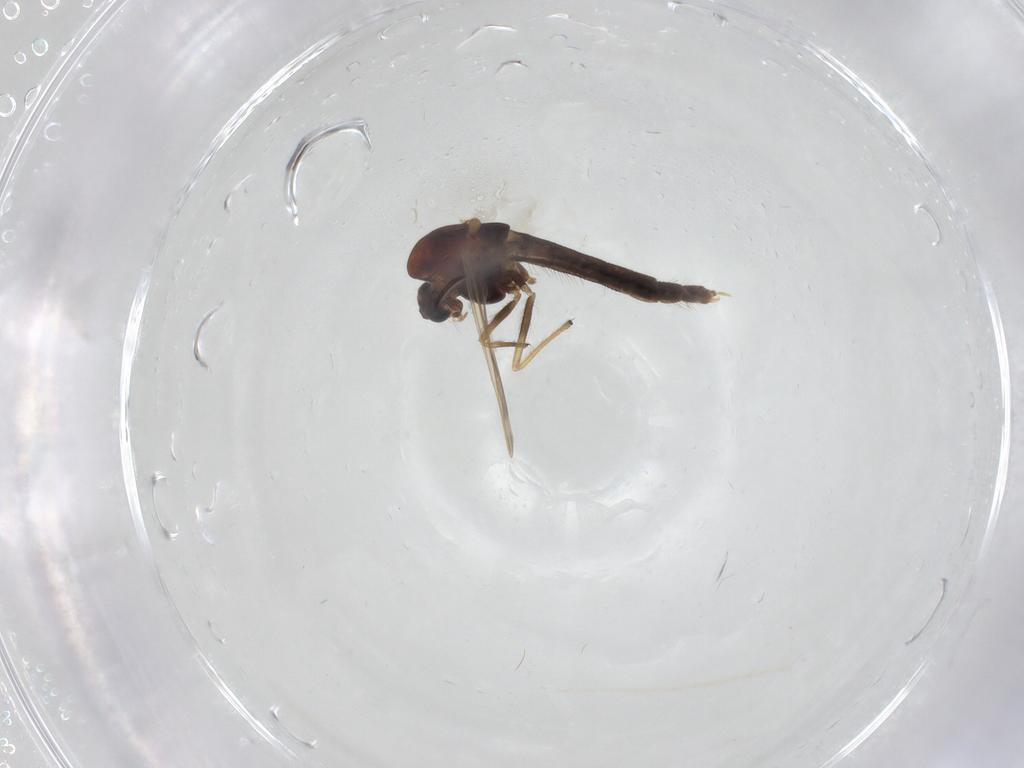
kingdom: Animalia
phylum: Arthropoda
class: Insecta
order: Diptera
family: Chironomidae
